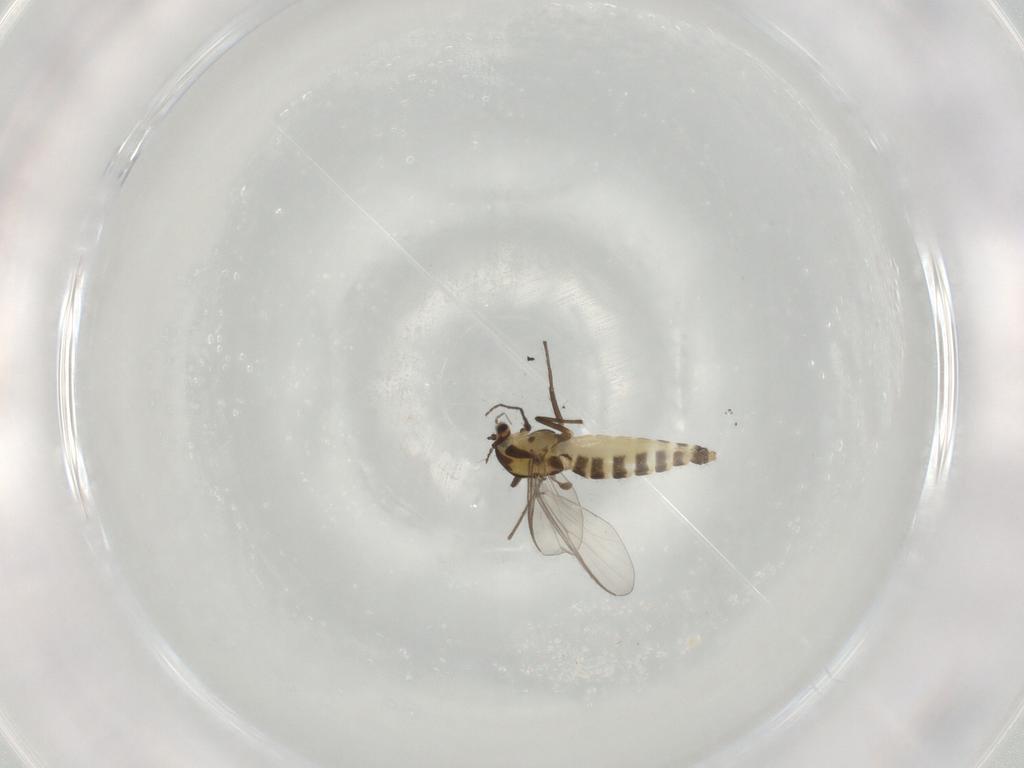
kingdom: Animalia
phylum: Arthropoda
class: Insecta
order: Diptera
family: Chironomidae
